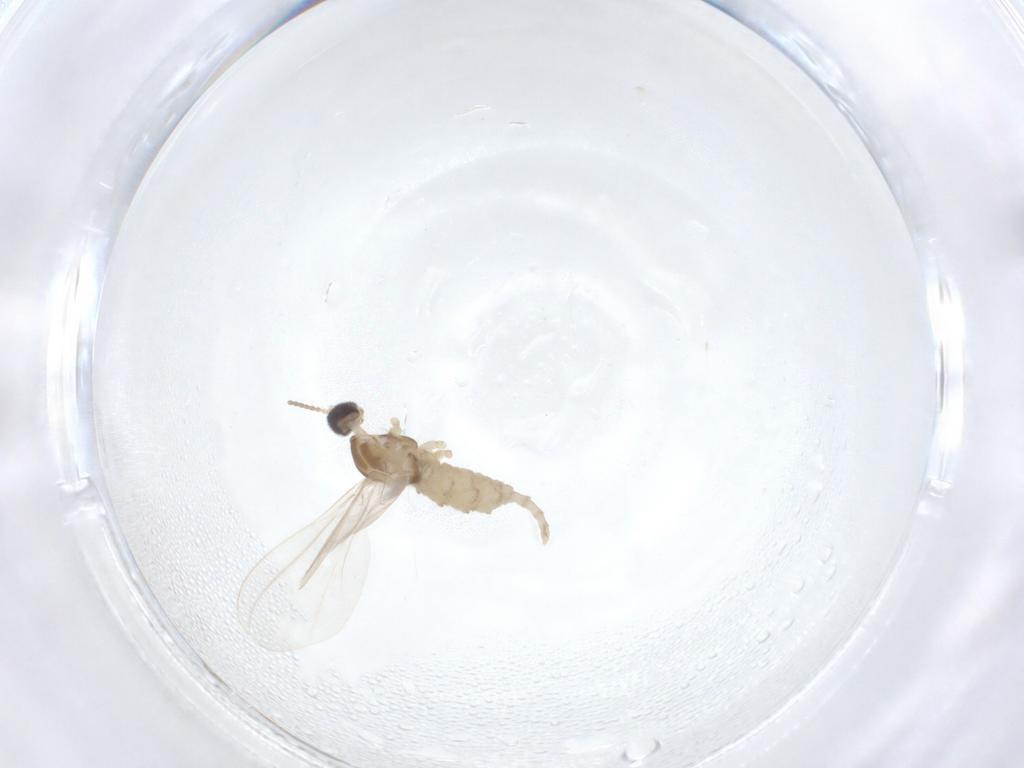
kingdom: Animalia
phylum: Arthropoda
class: Insecta
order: Diptera
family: Cecidomyiidae
